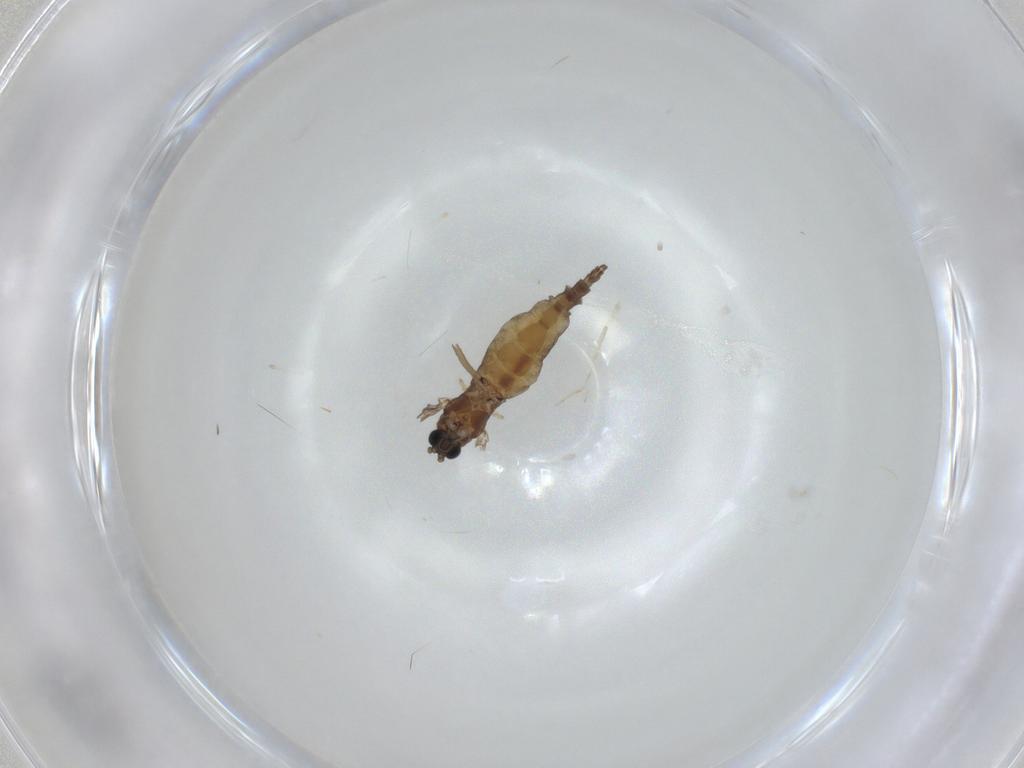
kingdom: Animalia
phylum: Arthropoda
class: Insecta
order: Diptera
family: Sciaridae
